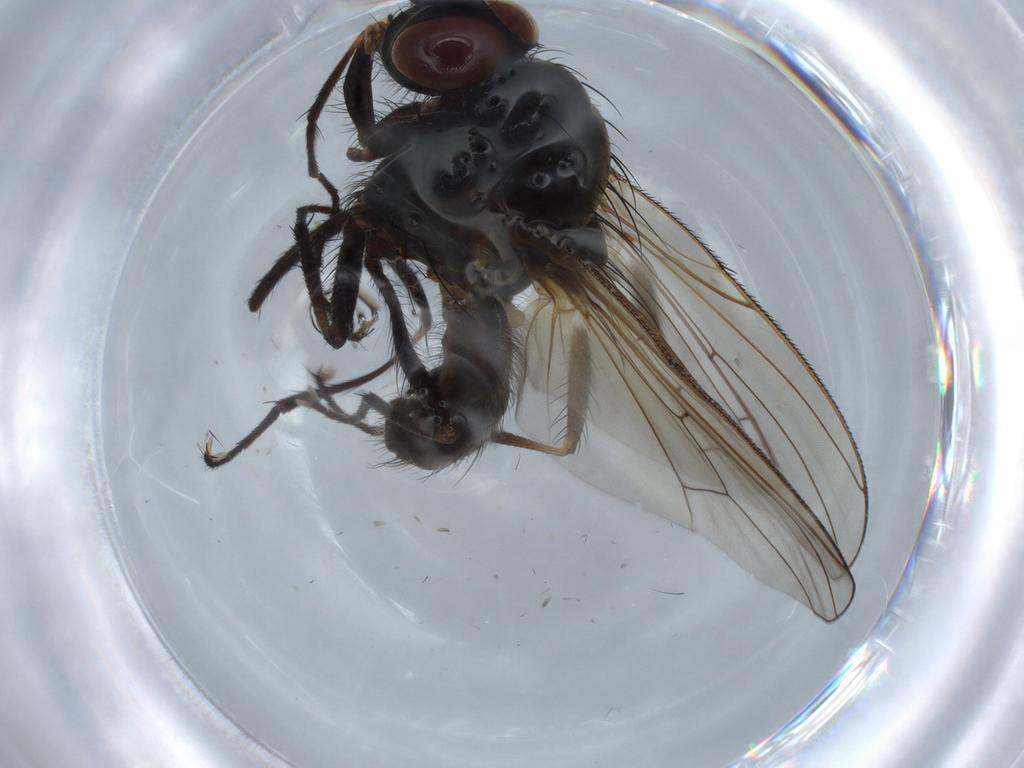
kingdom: Animalia
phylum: Arthropoda
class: Insecta
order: Diptera
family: Anthomyiidae
